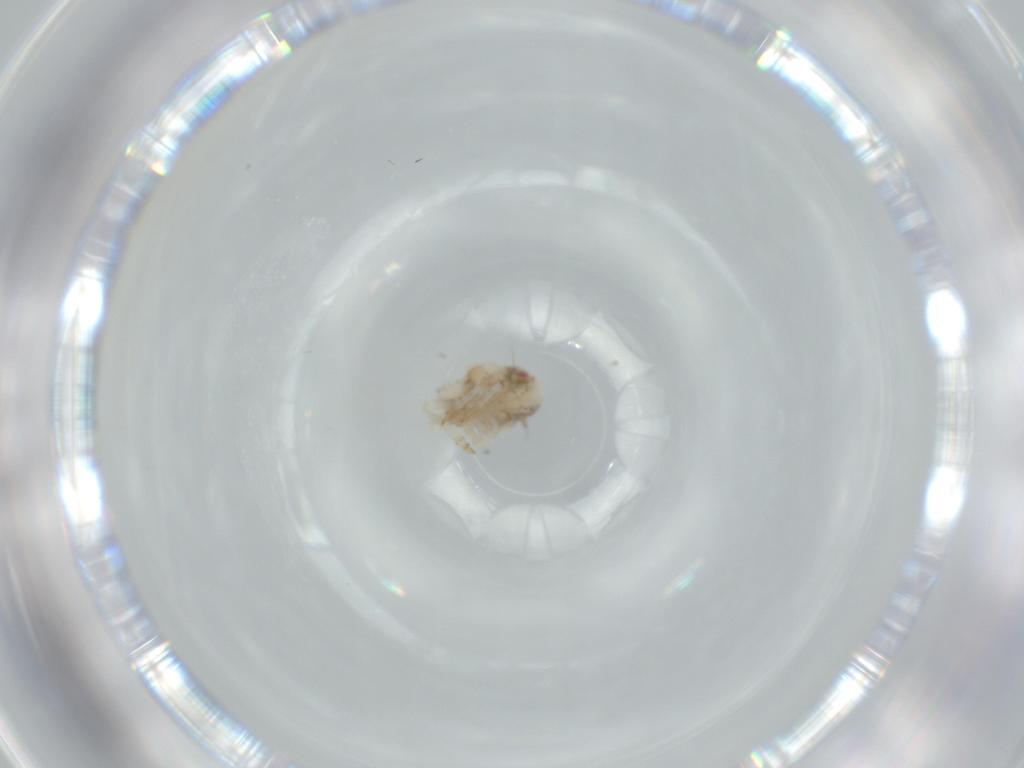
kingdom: Animalia
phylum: Arthropoda
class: Insecta
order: Hemiptera
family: Acanaloniidae
